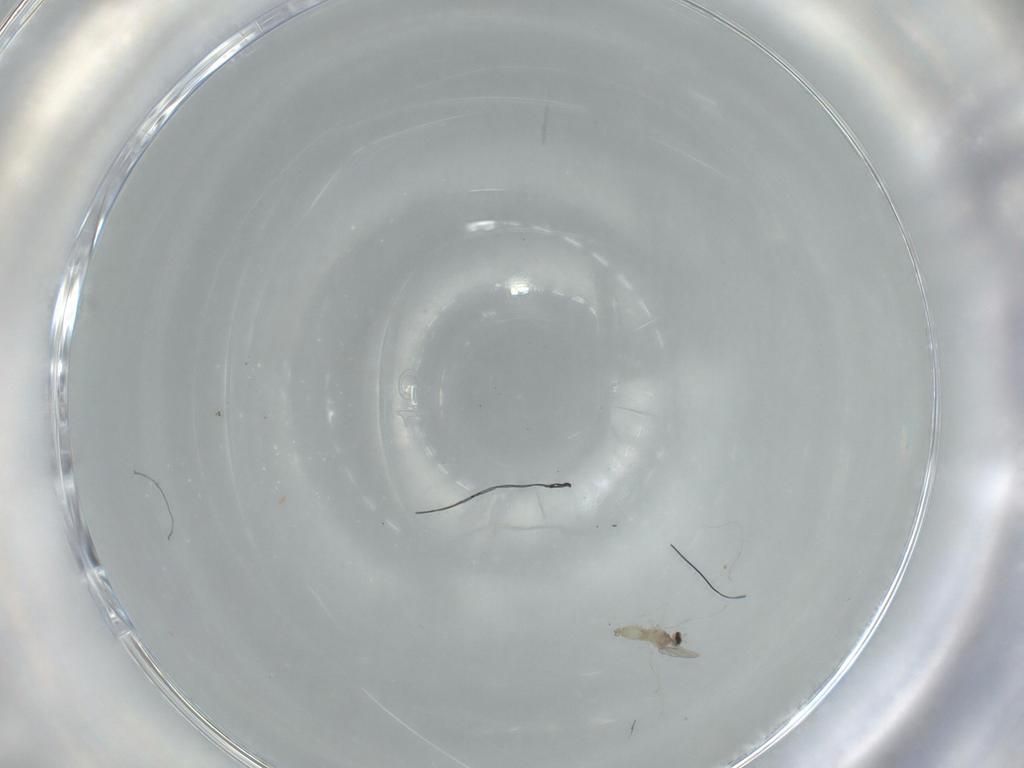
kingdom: Animalia
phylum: Arthropoda
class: Insecta
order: Diptera
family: Cecidomyiidae
